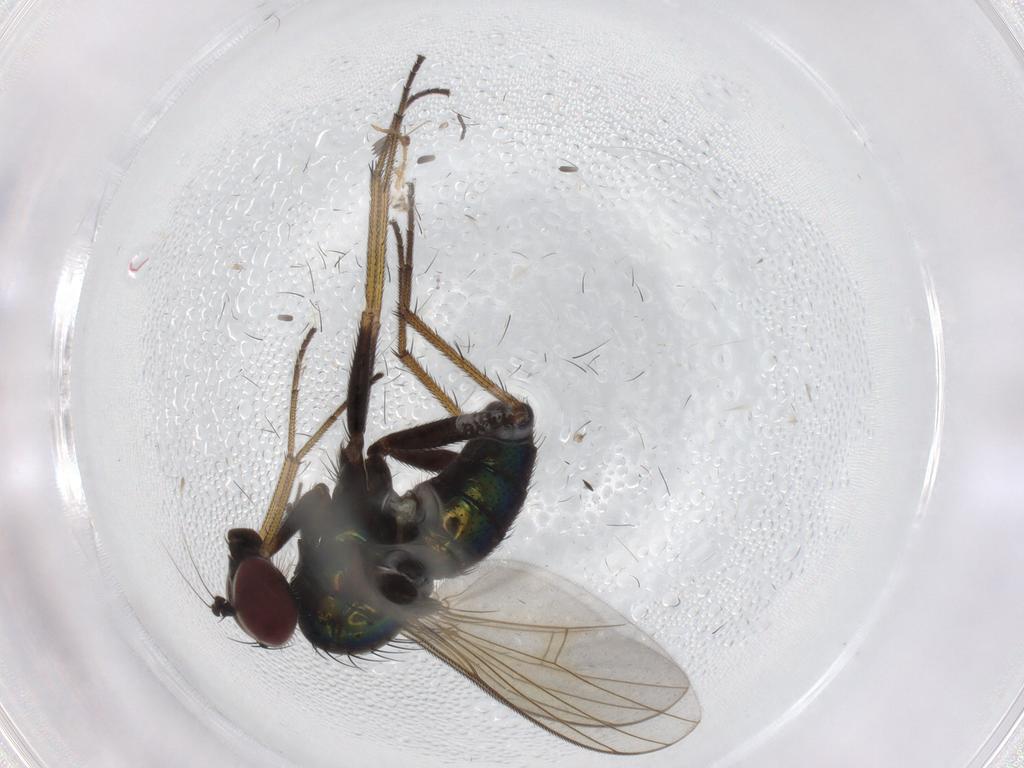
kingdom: Animalia
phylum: Arthropoda
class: Insecta
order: Diptera
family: Dolichopodidae
